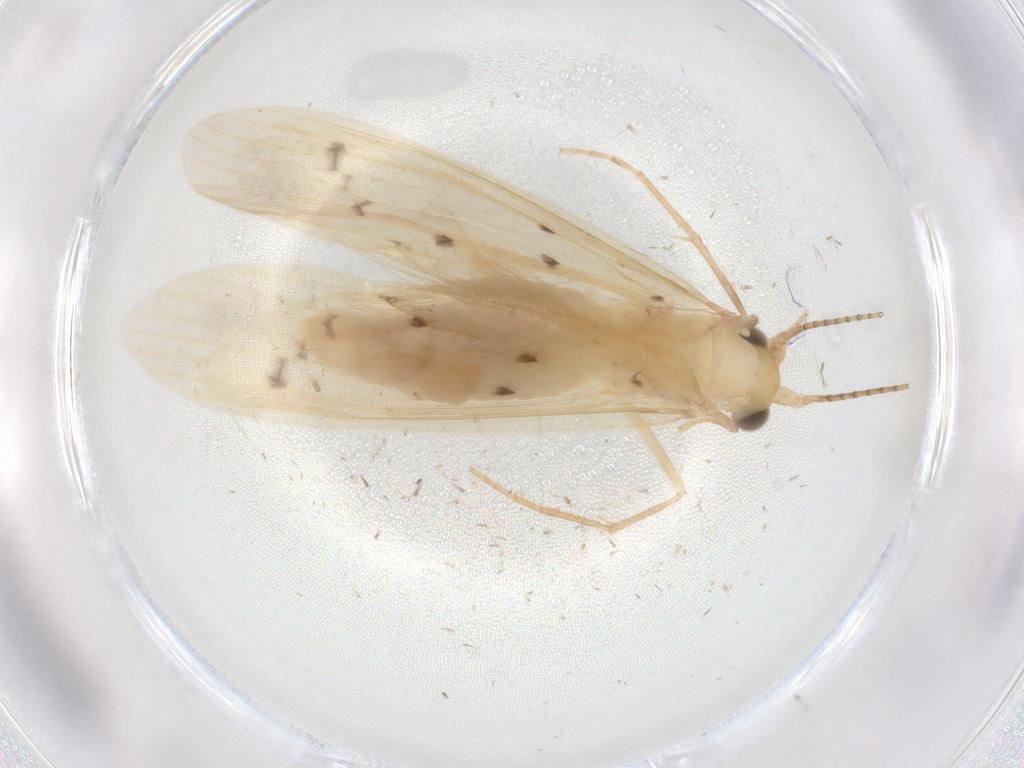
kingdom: Animalia
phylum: Arthropoda
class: Insecta
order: Trichoptera
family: Leptoceridae
